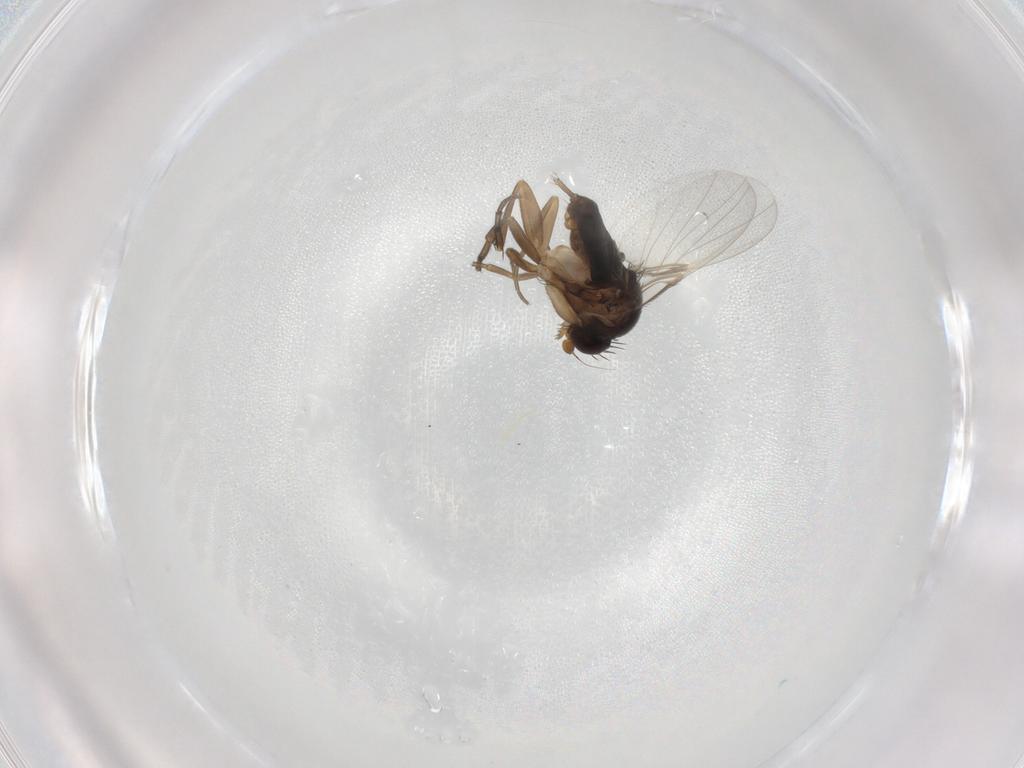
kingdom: Animalia
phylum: Arthropoda
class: Insecta
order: Diptera
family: Phoridae
